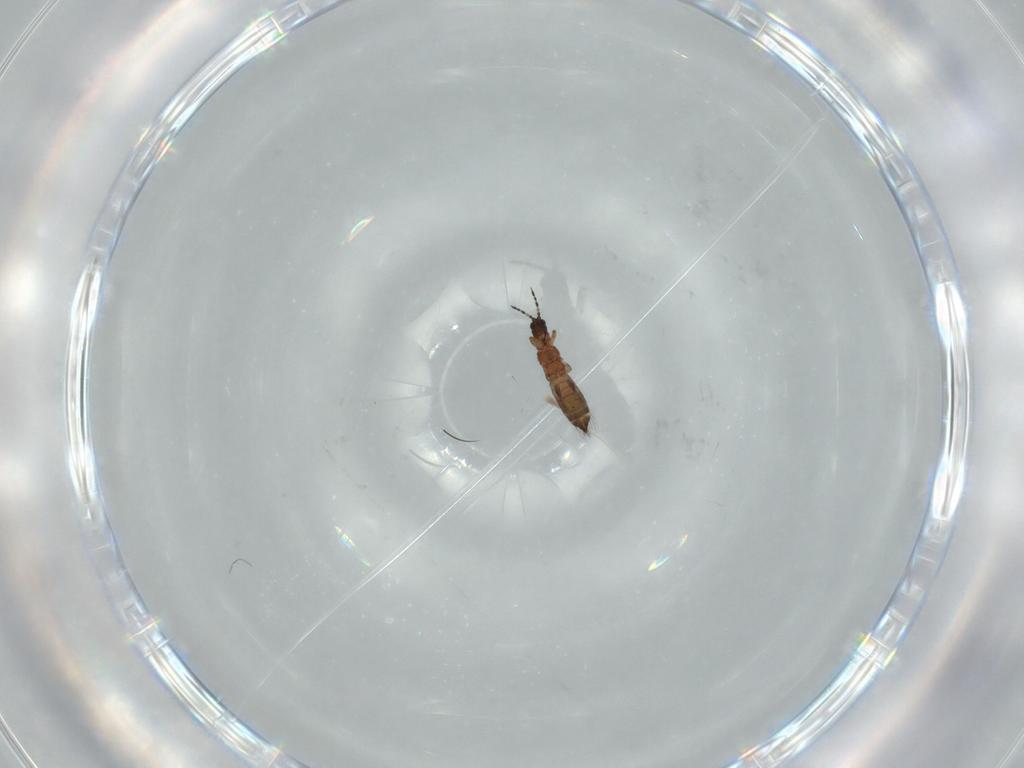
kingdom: Animalia
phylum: Arthropoda
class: Insecta
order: Thysanoptera
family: Thripidae
